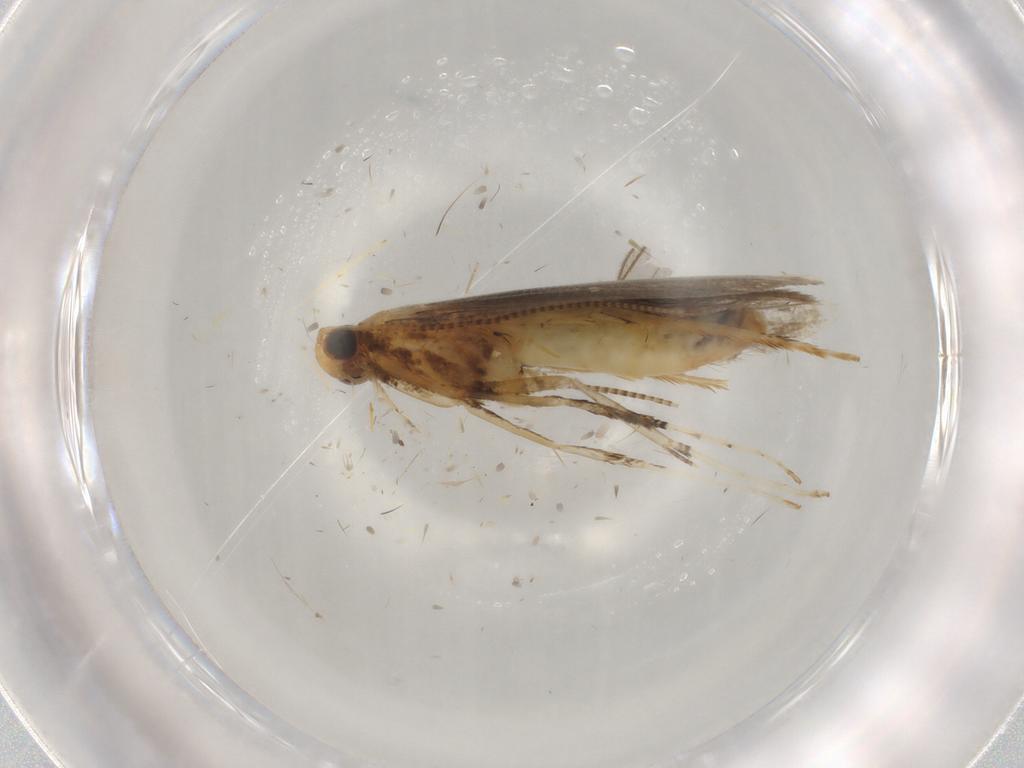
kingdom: Animalia
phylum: Arthropoda
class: Insecta
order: Lepidoptera
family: Gracillariidae
